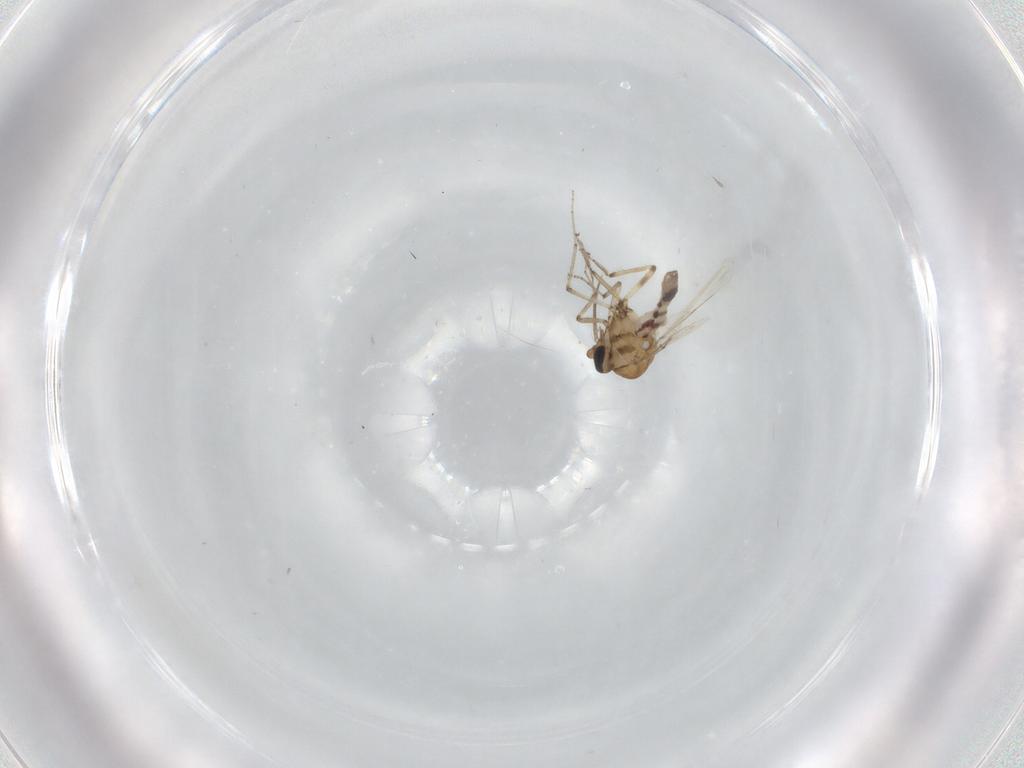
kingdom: Animalia
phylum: Arthropoda
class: Insecta
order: Diptera
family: Ceratopogonidae
